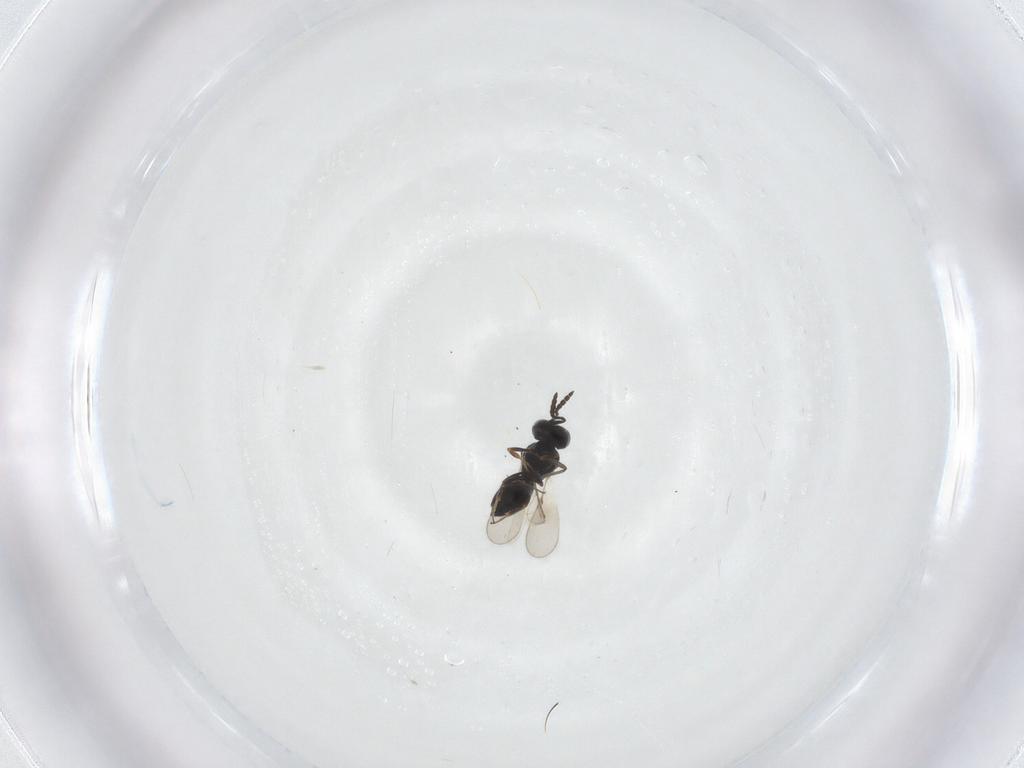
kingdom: Animalia
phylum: Arthropoda
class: Insecta
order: Hymenoptera
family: Scelionidae
